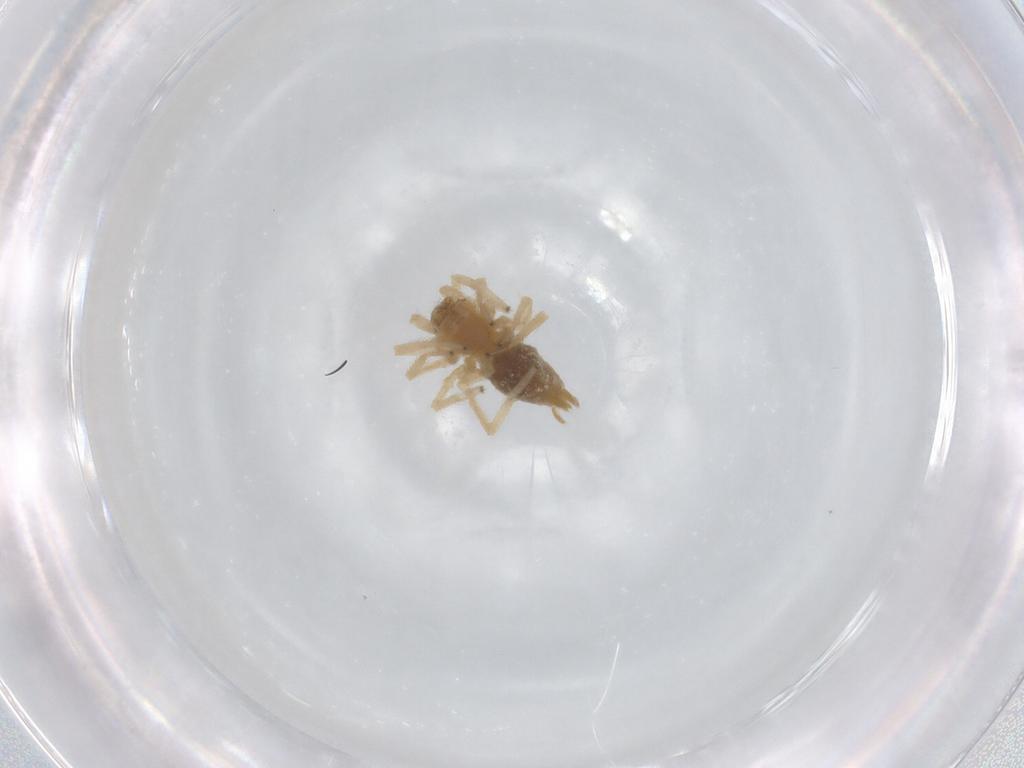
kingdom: Animalia
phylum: Arthropoda
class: Arachnida
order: Araneae
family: Cheiracanthiidae
